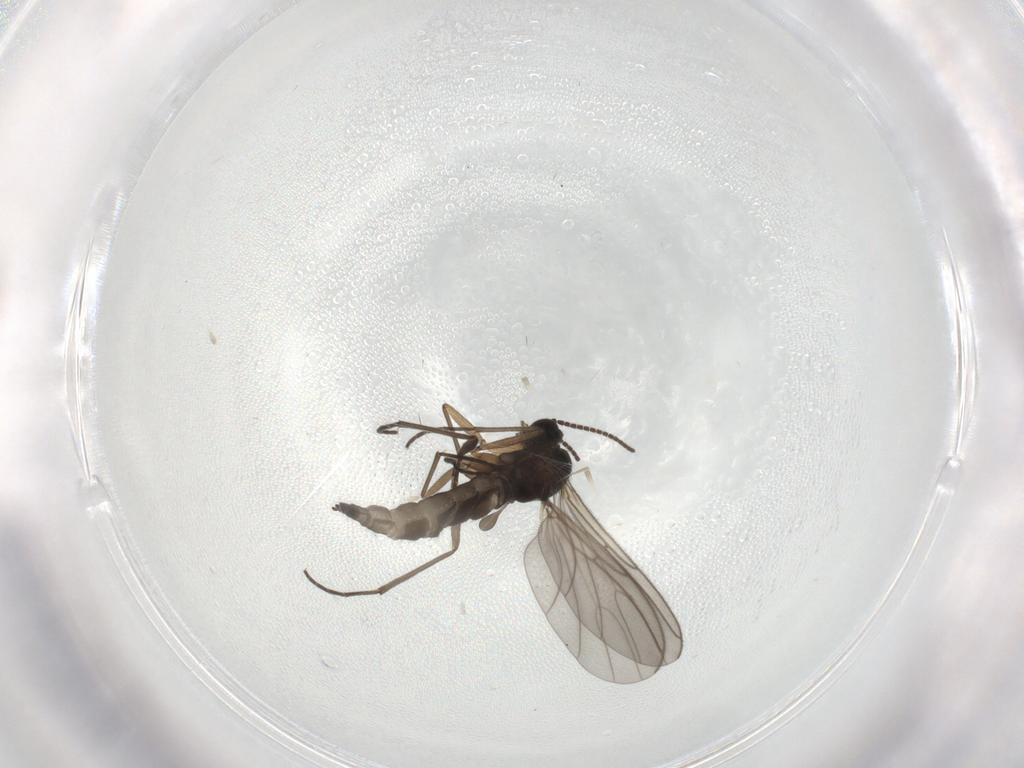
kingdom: Animalia
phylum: Arthropoda
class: Insecta
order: Diptera
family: Sciaridae
